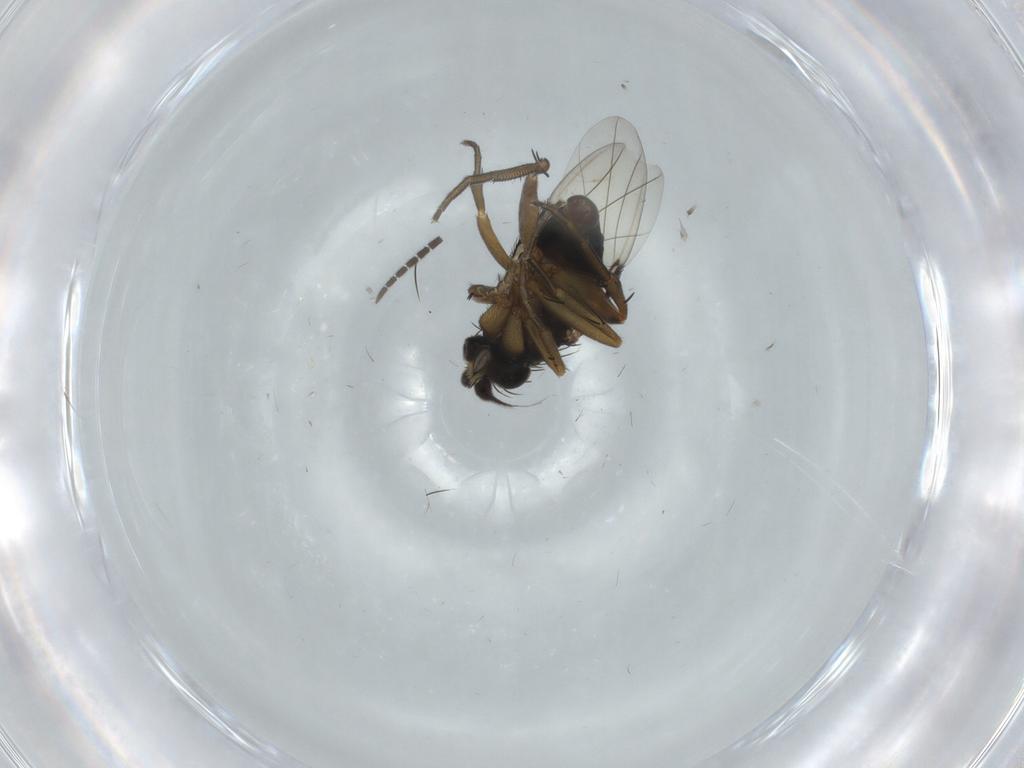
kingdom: Animalia
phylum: Arthropoda
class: Insecta
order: Diptera
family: Phoridae
